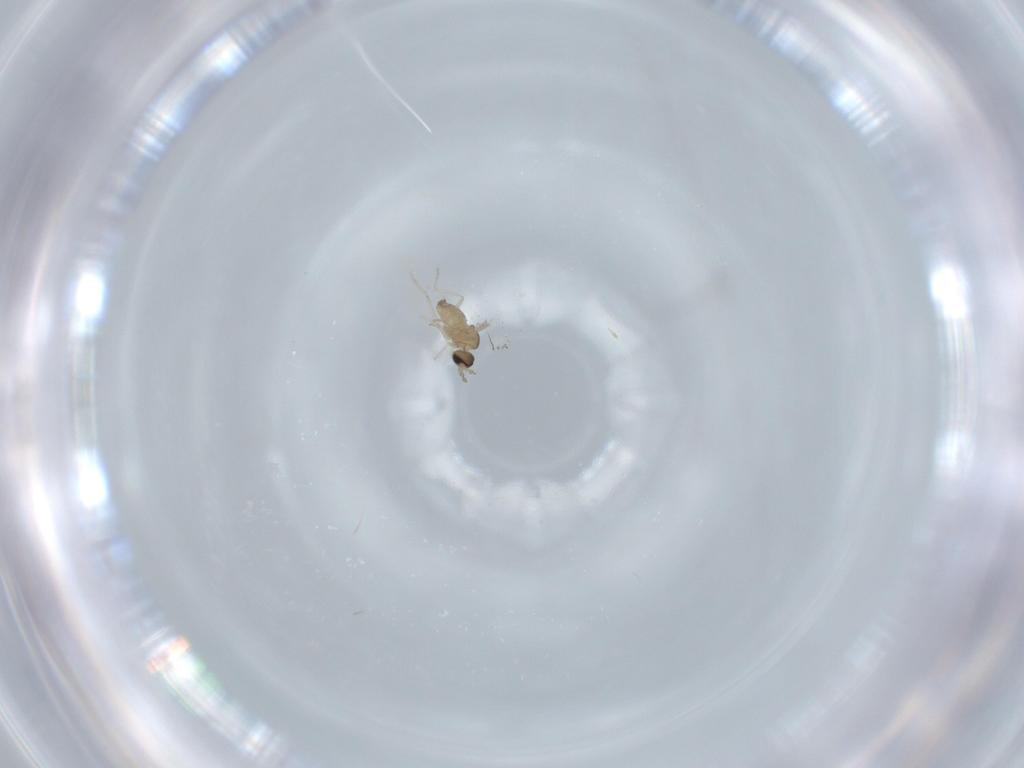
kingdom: Animalia
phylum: Arthropoda
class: Insecta
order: Diptera
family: Cecidomyiidae
